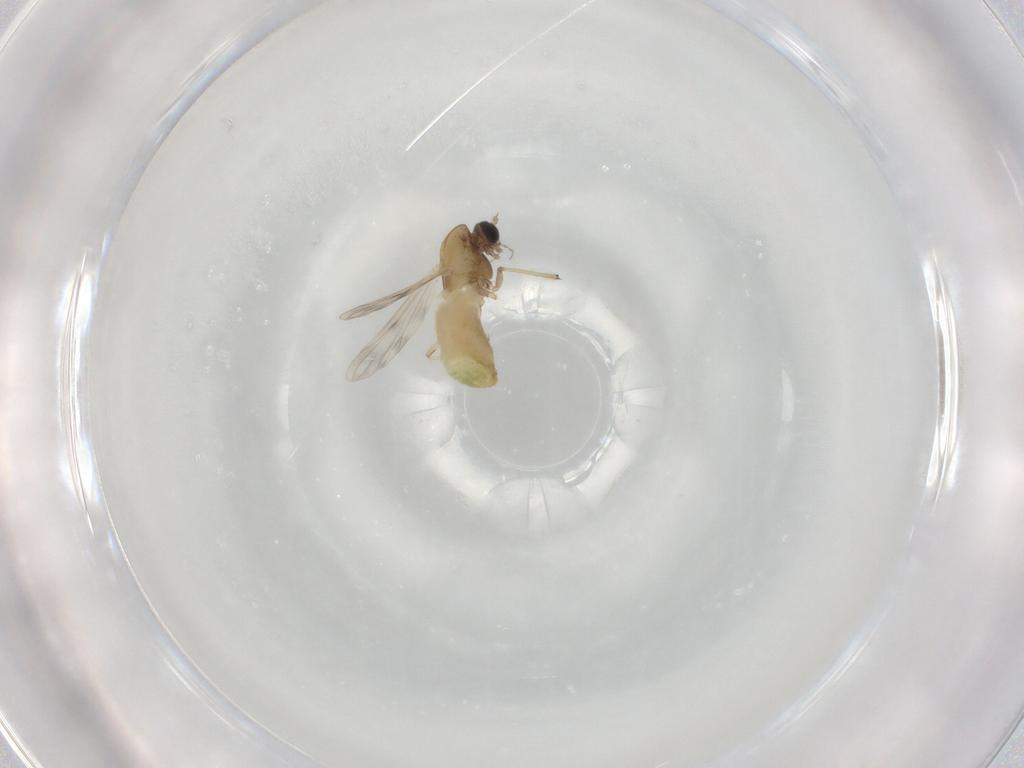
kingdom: Animalia
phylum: Arthropoda
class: Insecta
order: Diptera
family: Chironomidae
